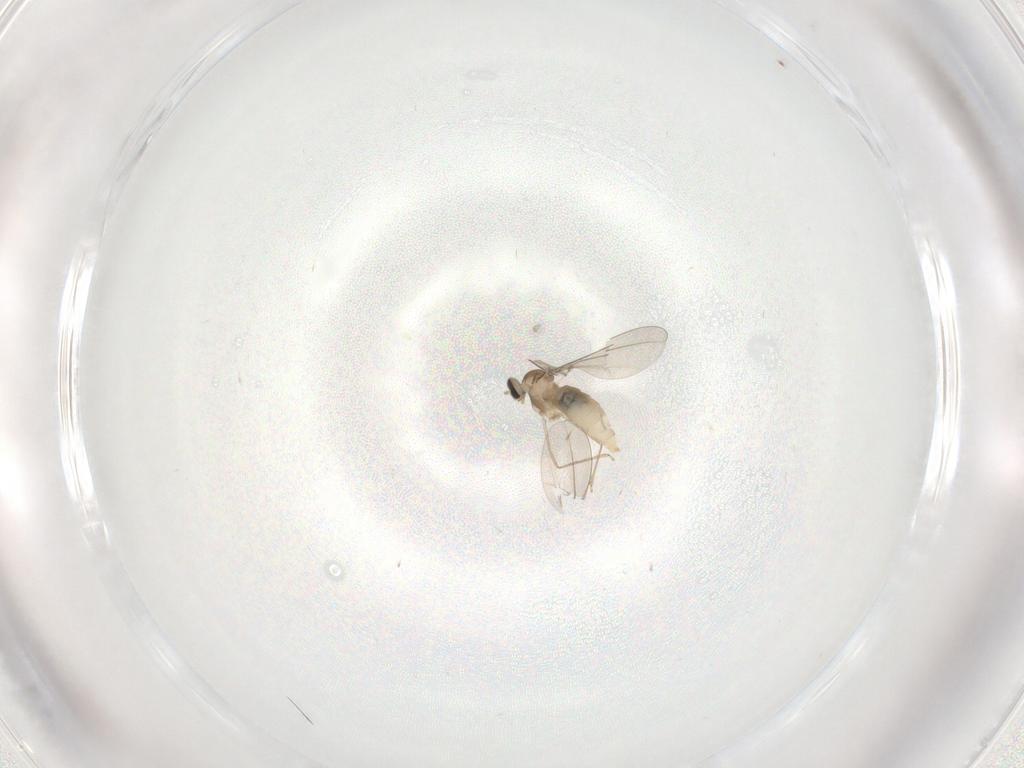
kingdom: Animalia
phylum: Arthropoda
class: Insecta
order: Diptera
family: Cecidomyiidae
